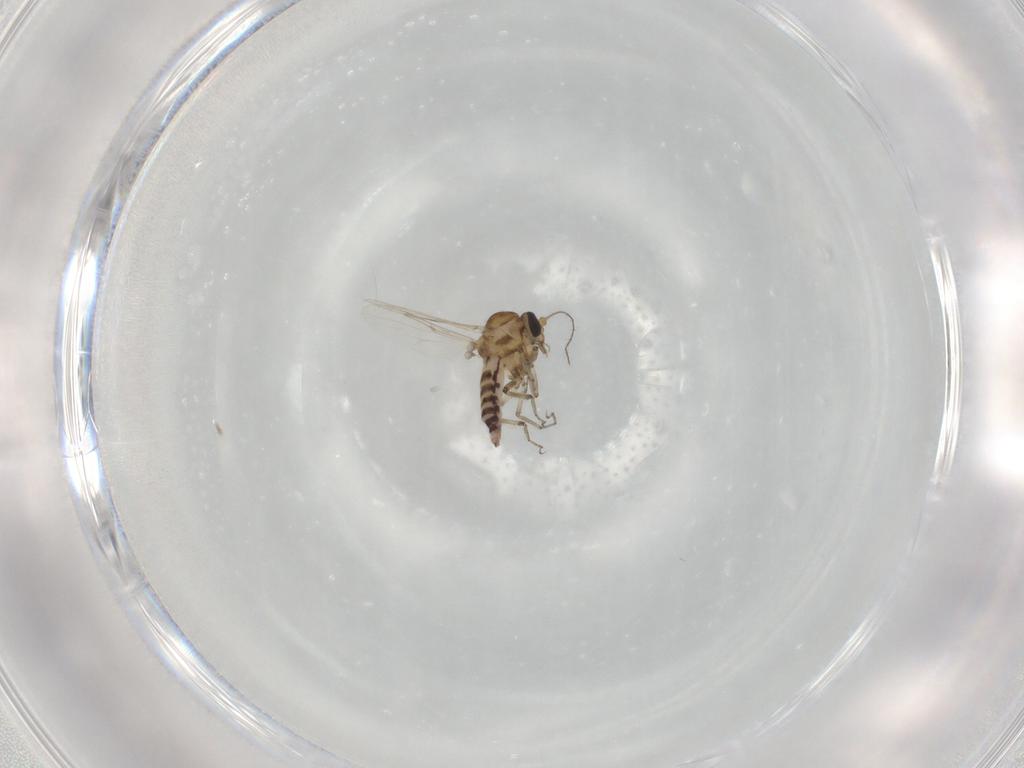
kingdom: Animalia
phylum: Arthropoda
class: Insecta
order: Diptera
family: Ceratopogonidae
